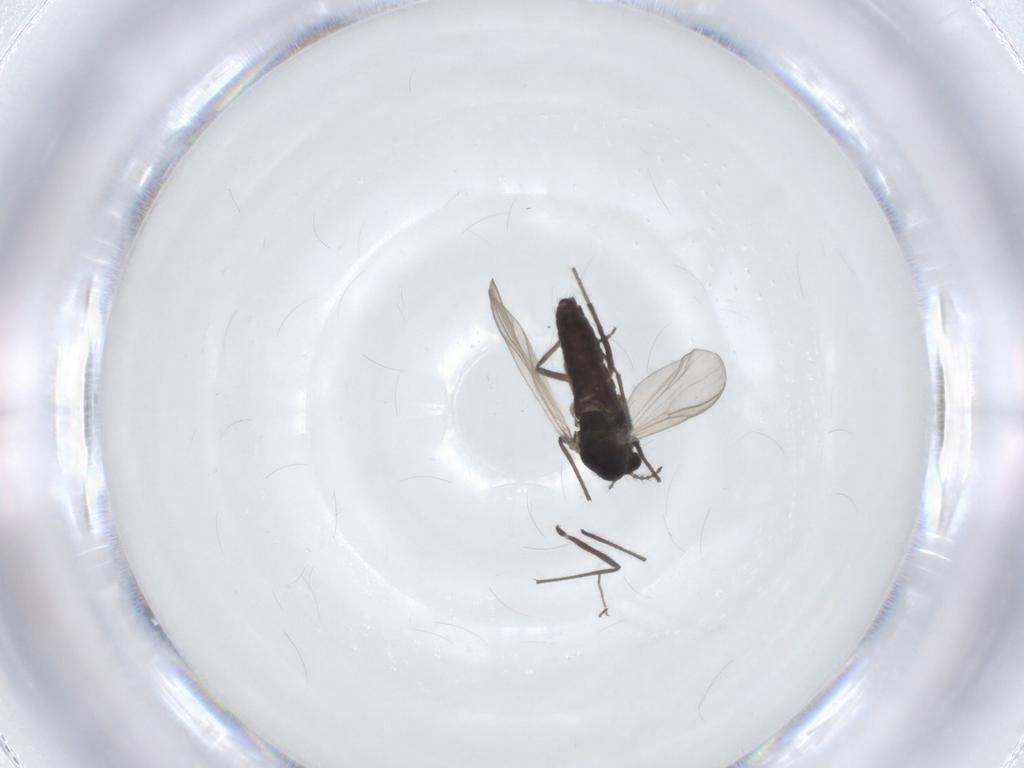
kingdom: Animalia
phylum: Arthropoda
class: Insecta
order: Diptera
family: Chironomidae
